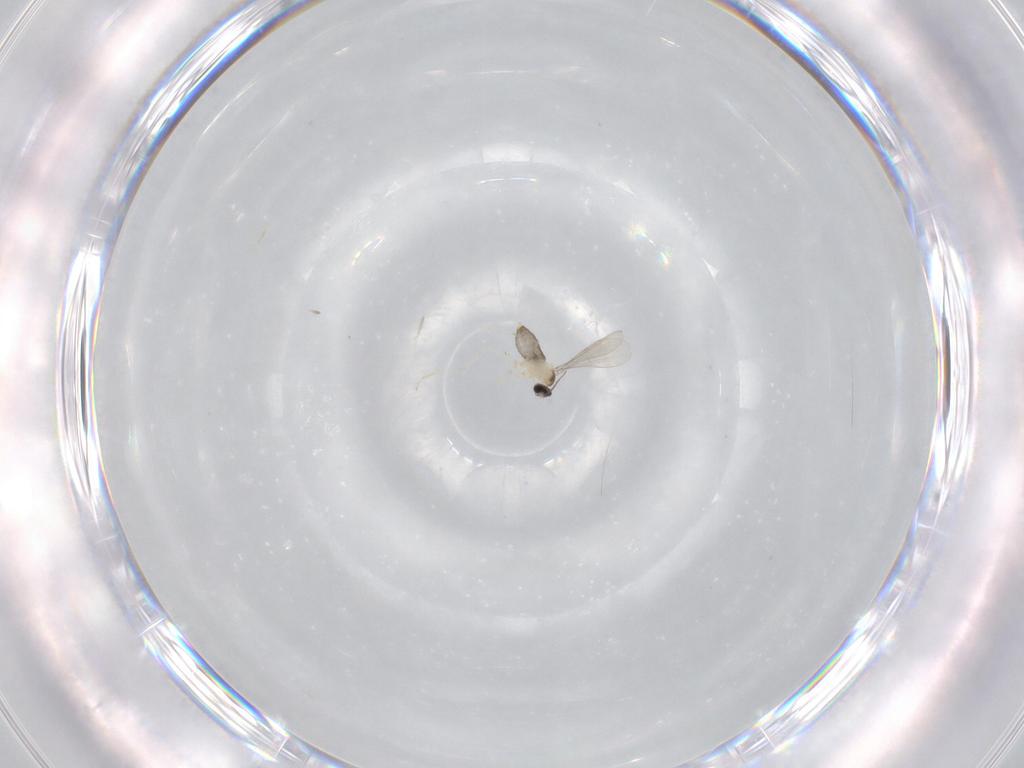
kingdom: Animalia
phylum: Arthropoda
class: Insecta
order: Diptera
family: Cecidomyiidae
